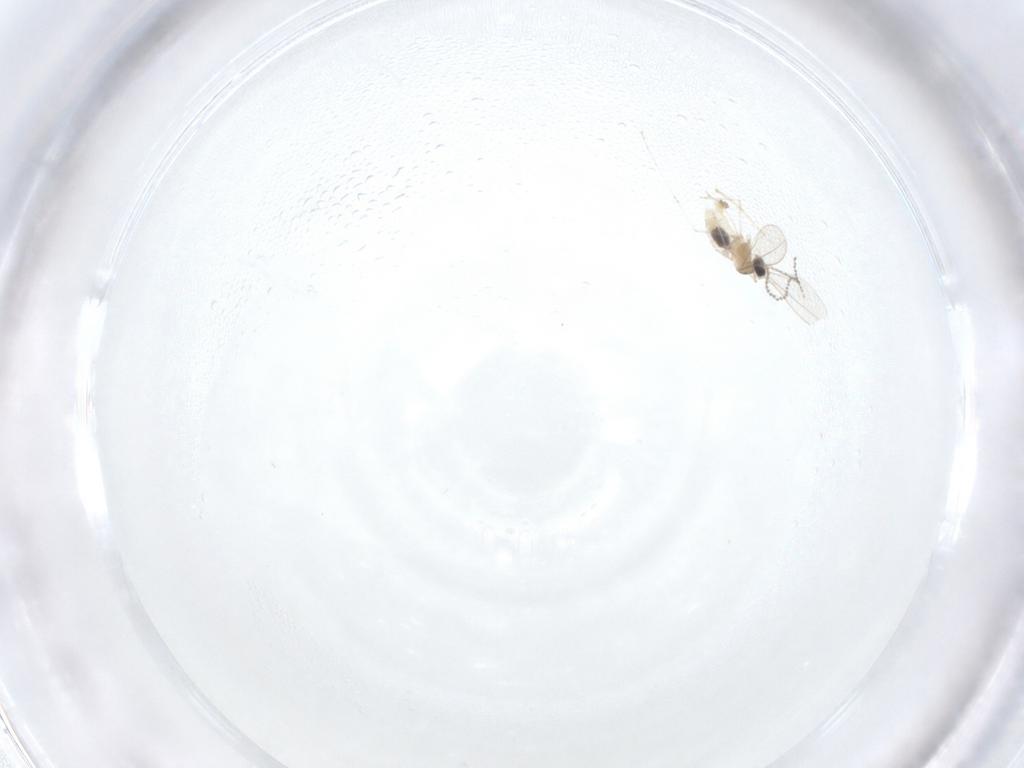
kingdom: Animalia
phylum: Arthropoda
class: Insecta
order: Diptera
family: Cecidomyiidae
